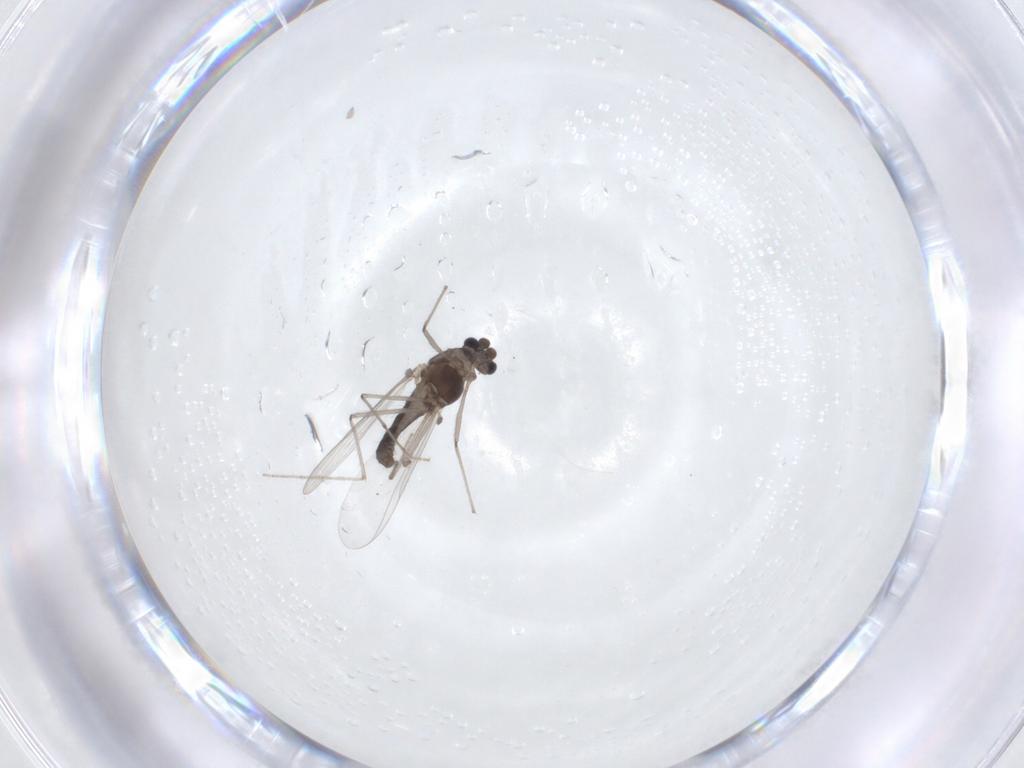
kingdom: Animalia
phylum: Arthropoda
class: Insecta
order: Diptera
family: Chironomidae
